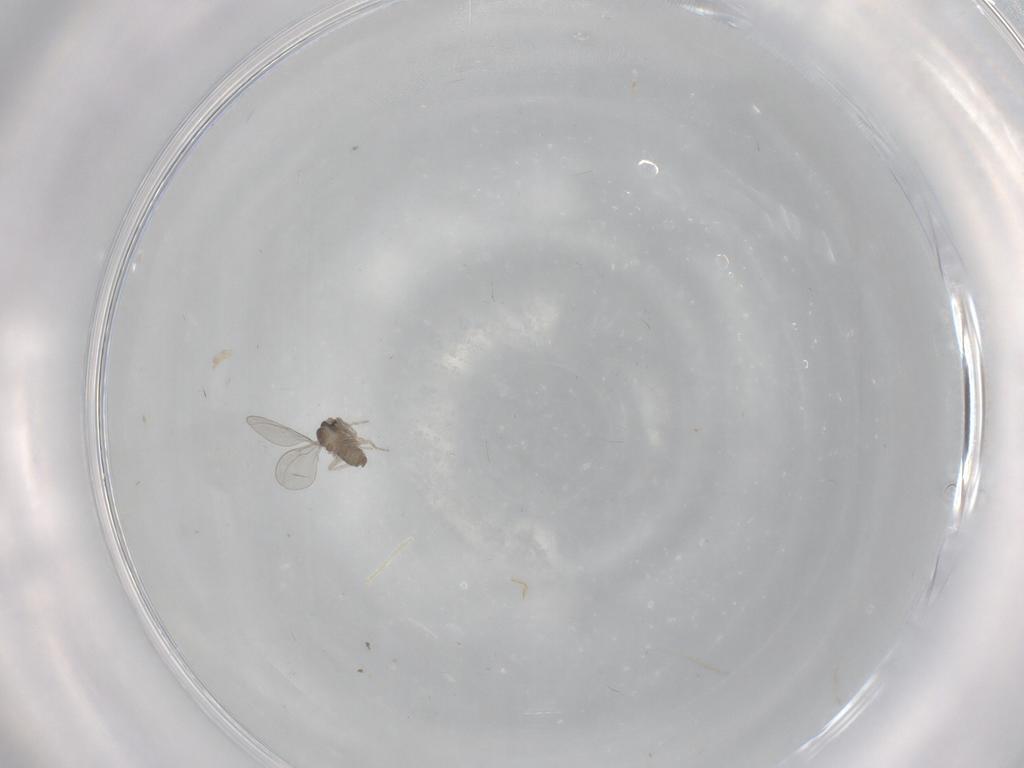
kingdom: Animalia
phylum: Arthropoda
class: Insecta
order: Diptera
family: Cecidomyiidae
